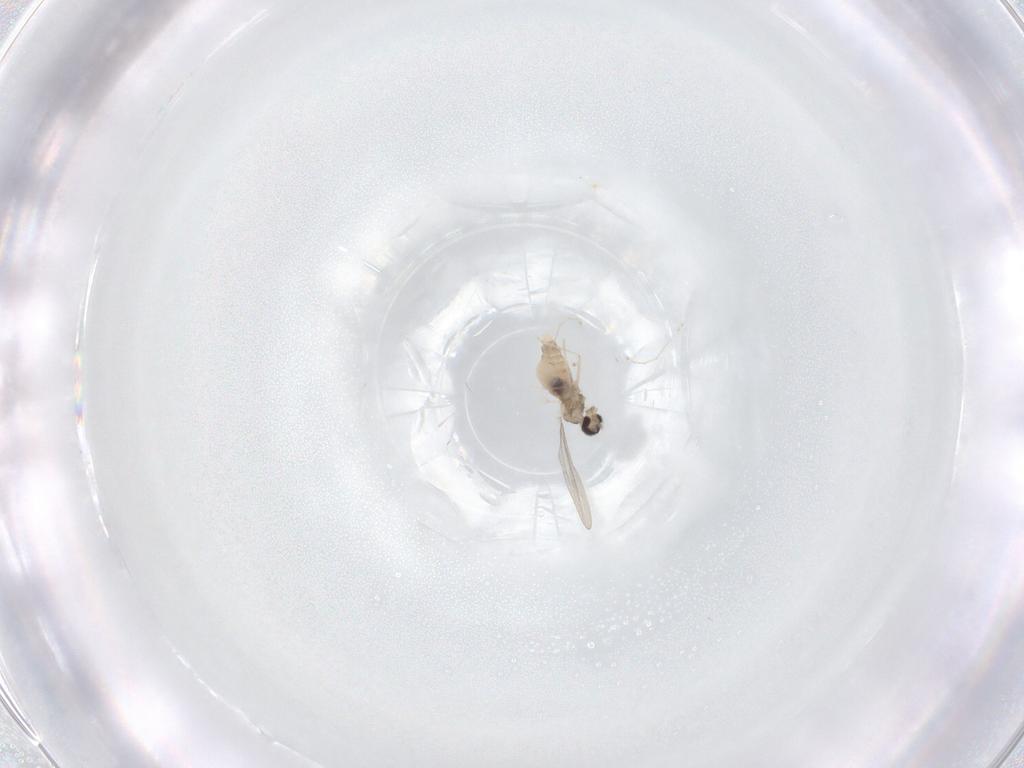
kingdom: Animalia
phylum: Arthropoda
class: Insecta
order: Diptera
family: Cecidomyiidae
